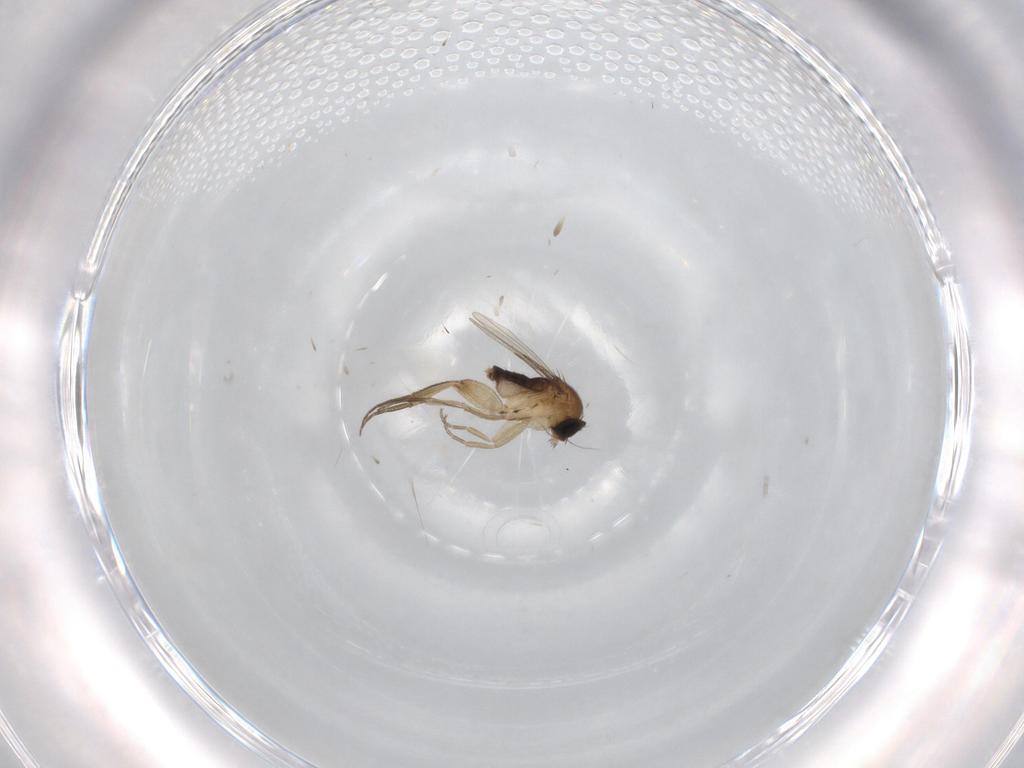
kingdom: Animalia
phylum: Arthropoda
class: Insecta
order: Diptera
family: Phoridae
